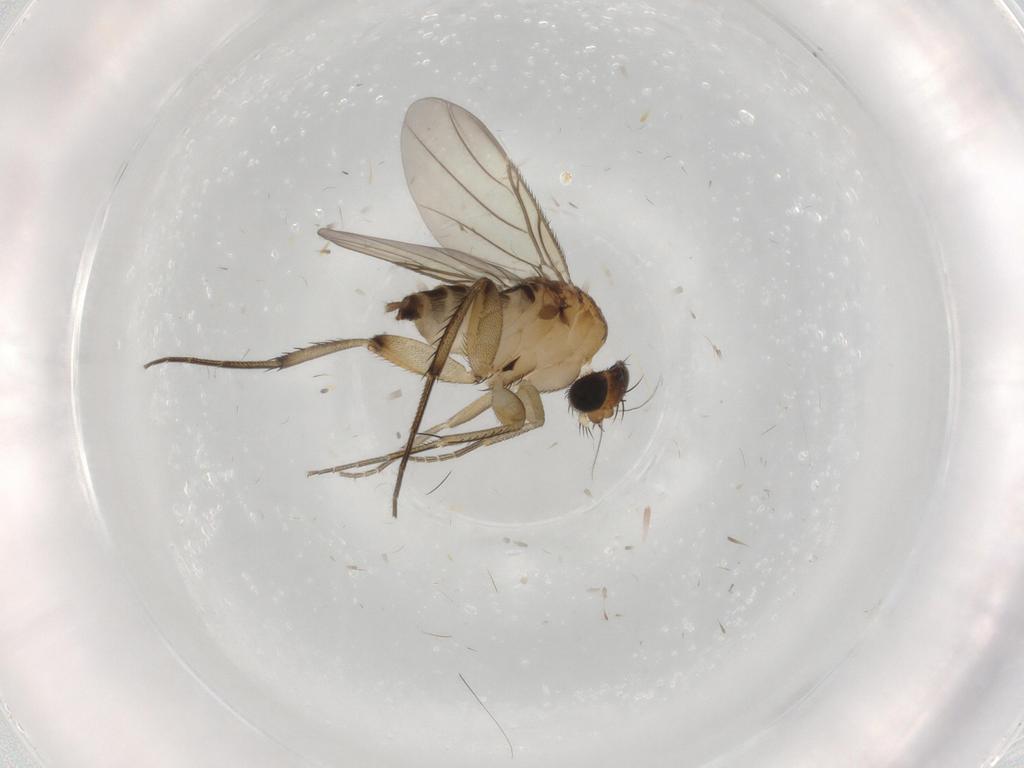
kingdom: Animalia
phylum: Arthropoda
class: Insecta
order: Diptera
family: Phoridae
